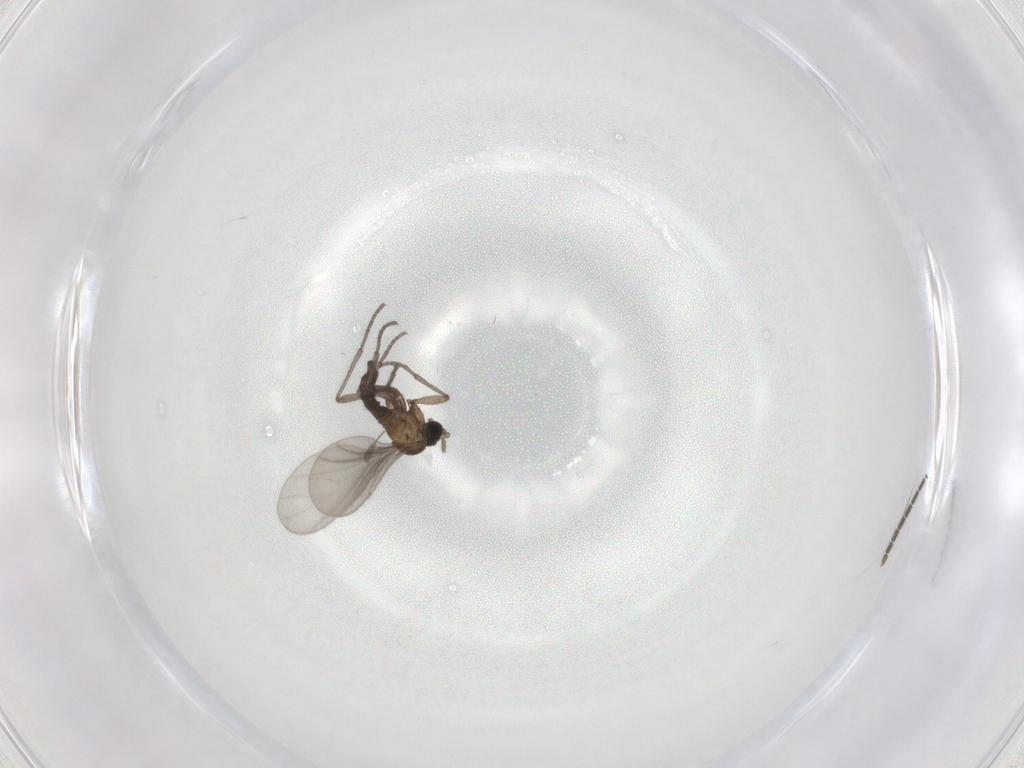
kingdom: Animalia
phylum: Arthropoda
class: Insecta
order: Diptera
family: Sciaridae
